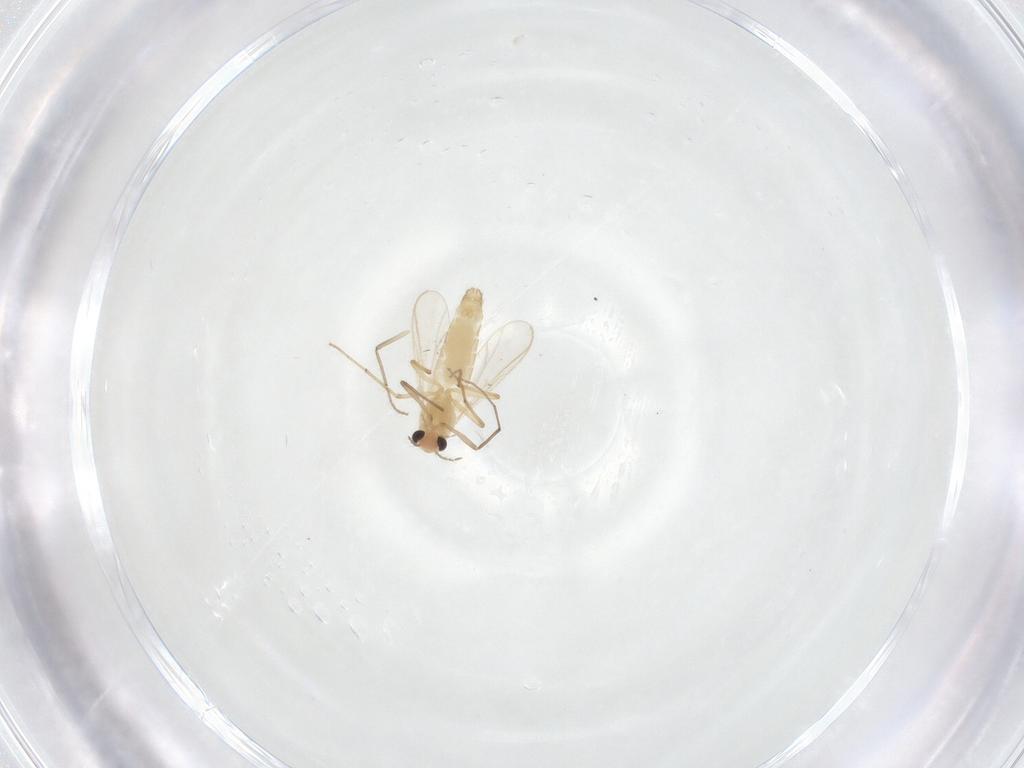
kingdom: Animalia
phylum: Arthropoda
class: Insecta
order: Diptera
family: Chironomidae
